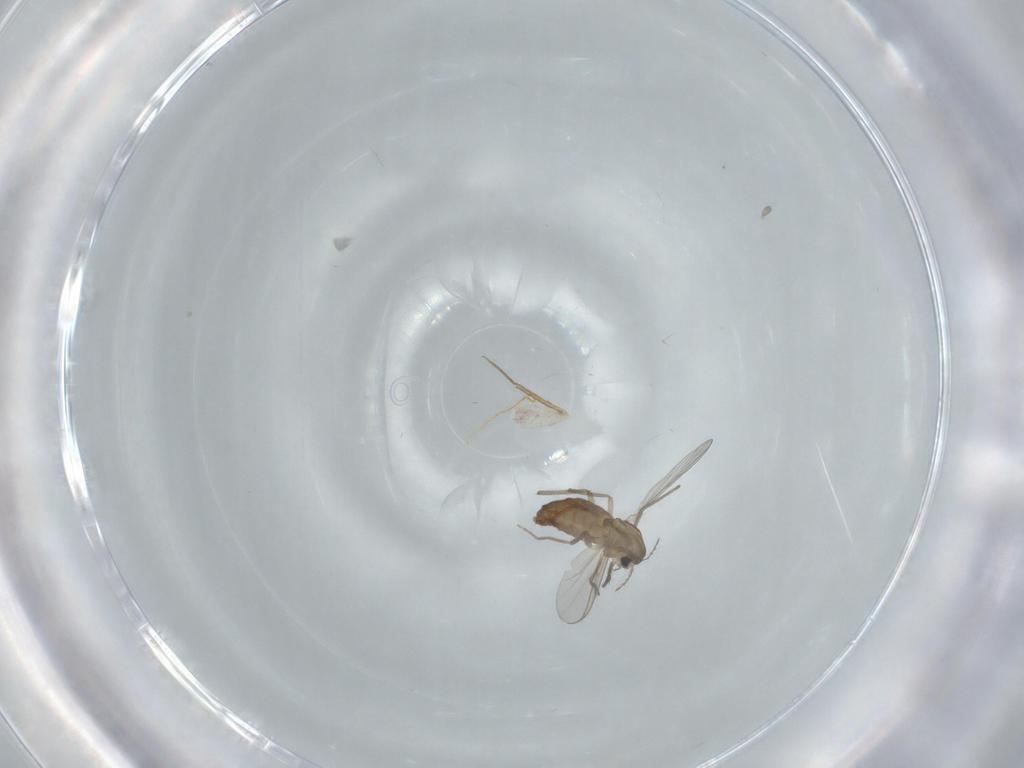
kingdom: Animalia
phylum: Arthropoda
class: Insecta
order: Diptera
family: Chironomidae
